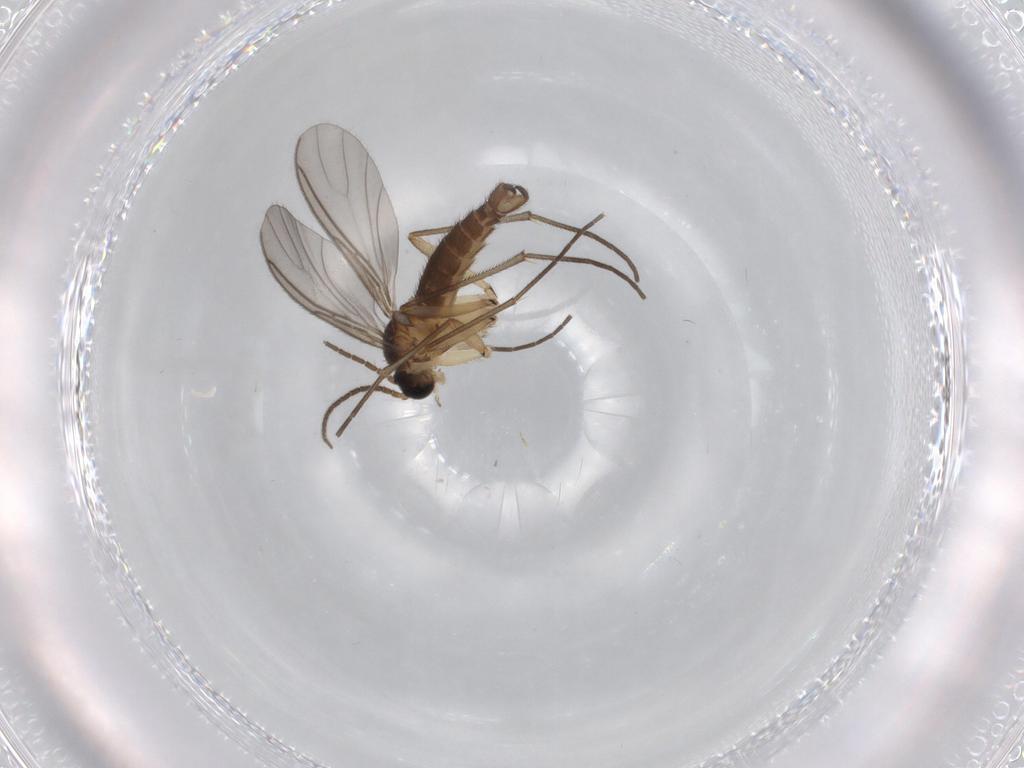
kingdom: Animalia
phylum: Arthropoda
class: Insecta
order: Diptera
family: Sciaridae
